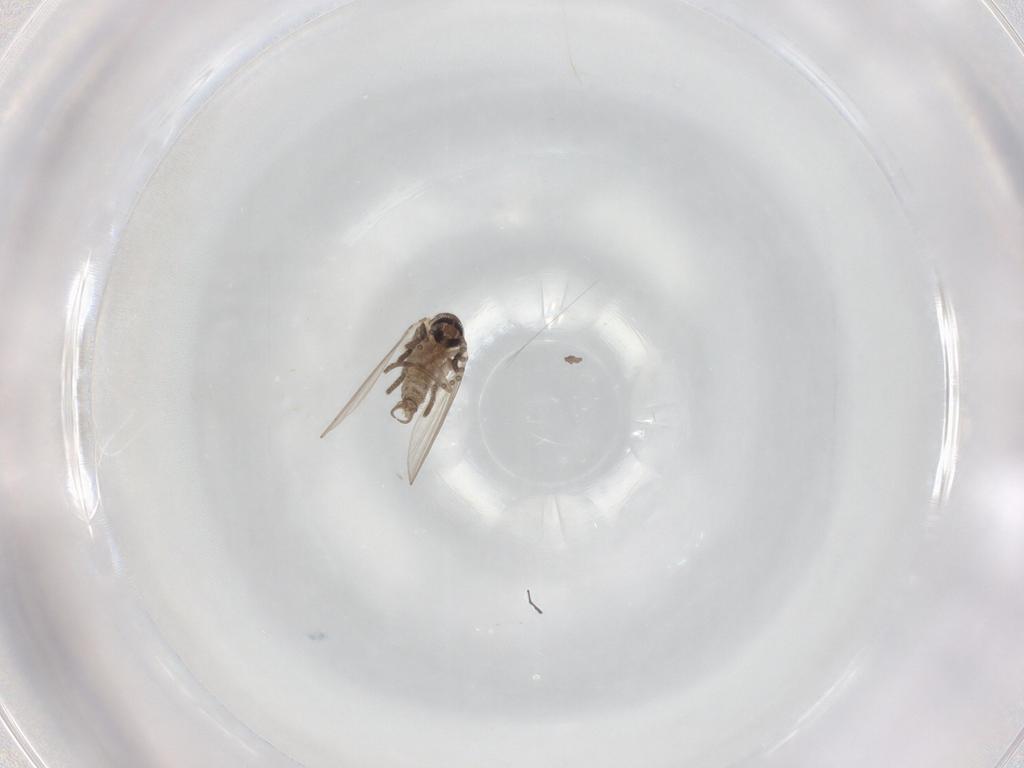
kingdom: Animalia
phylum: Arthropoda
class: Insecta
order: Diptera
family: Psychodidae
